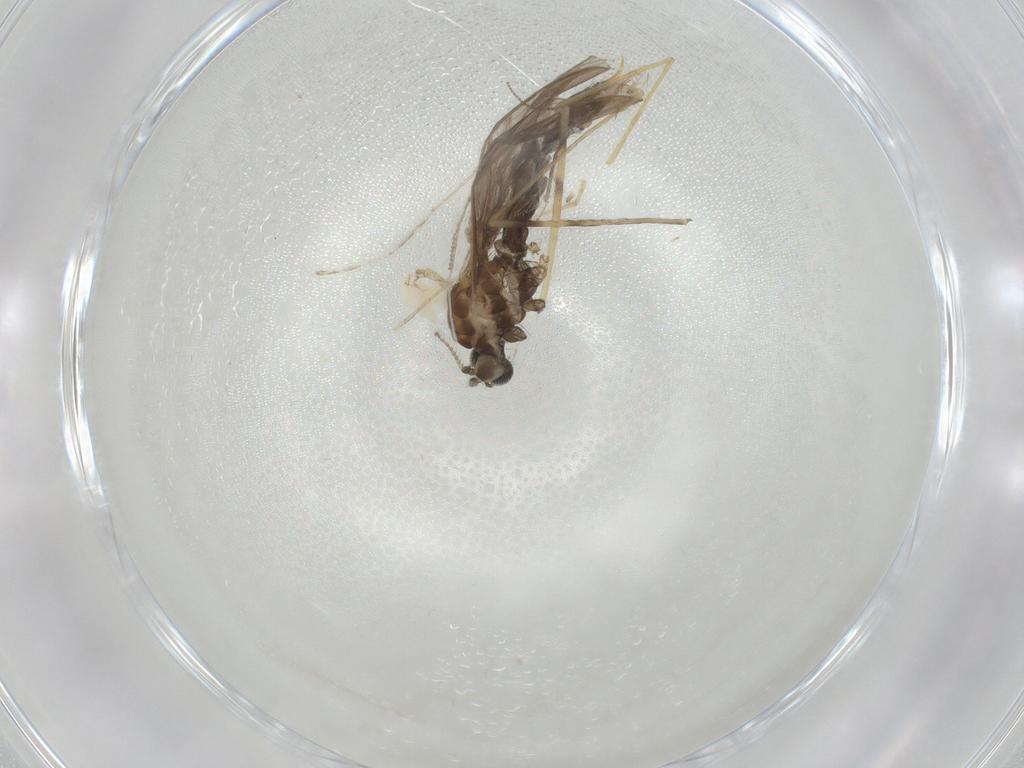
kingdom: Animalia
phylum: Arthropoda
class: Insecta
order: Diptera
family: Limoniidae
